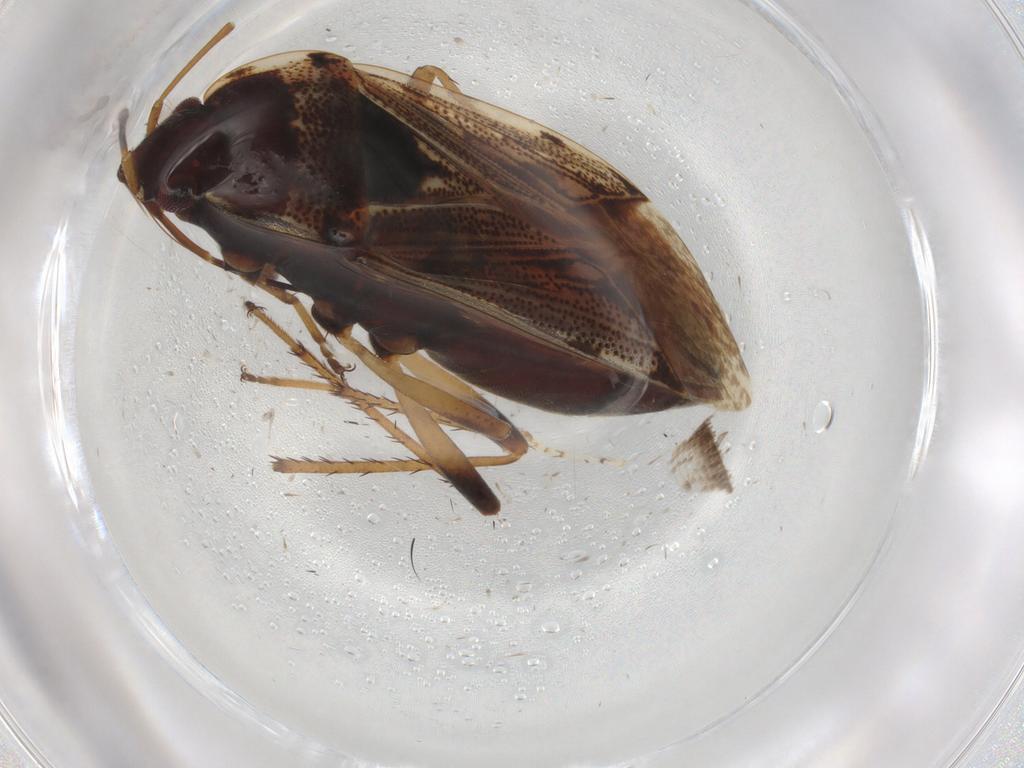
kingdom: Animalia
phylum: Arthropoda
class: Insecta
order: Hemiptera
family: Rhyparochromidae
